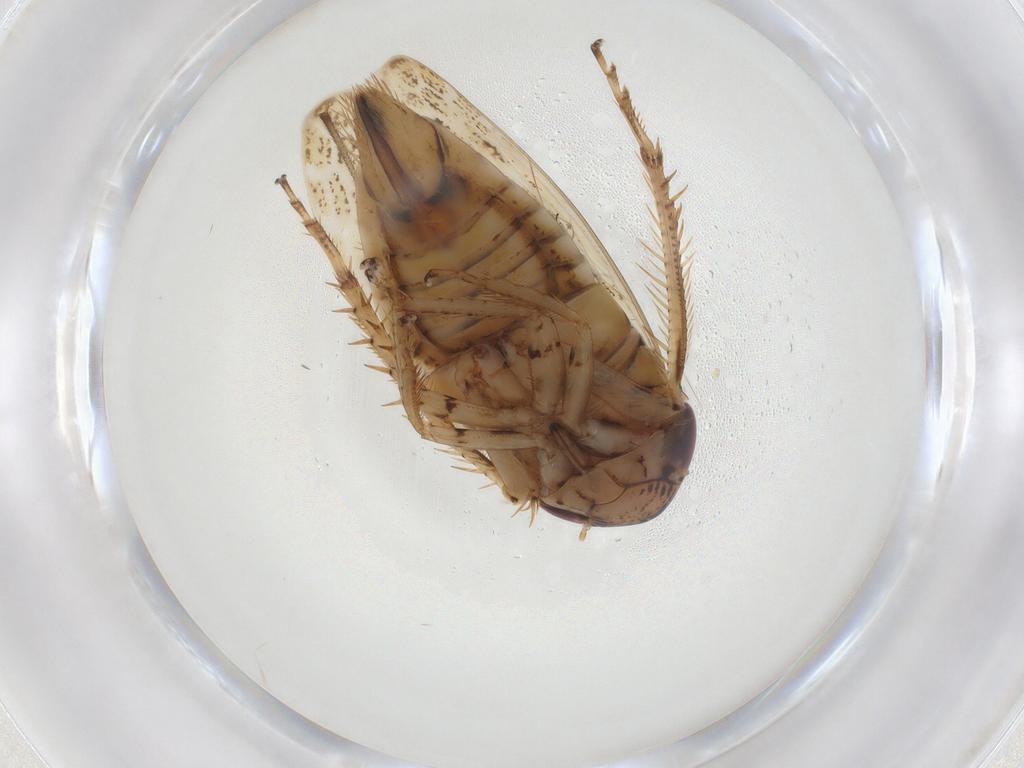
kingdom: Animalia
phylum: Arthropoda
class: Insecta
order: Hemiptera
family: Cicadellidae
